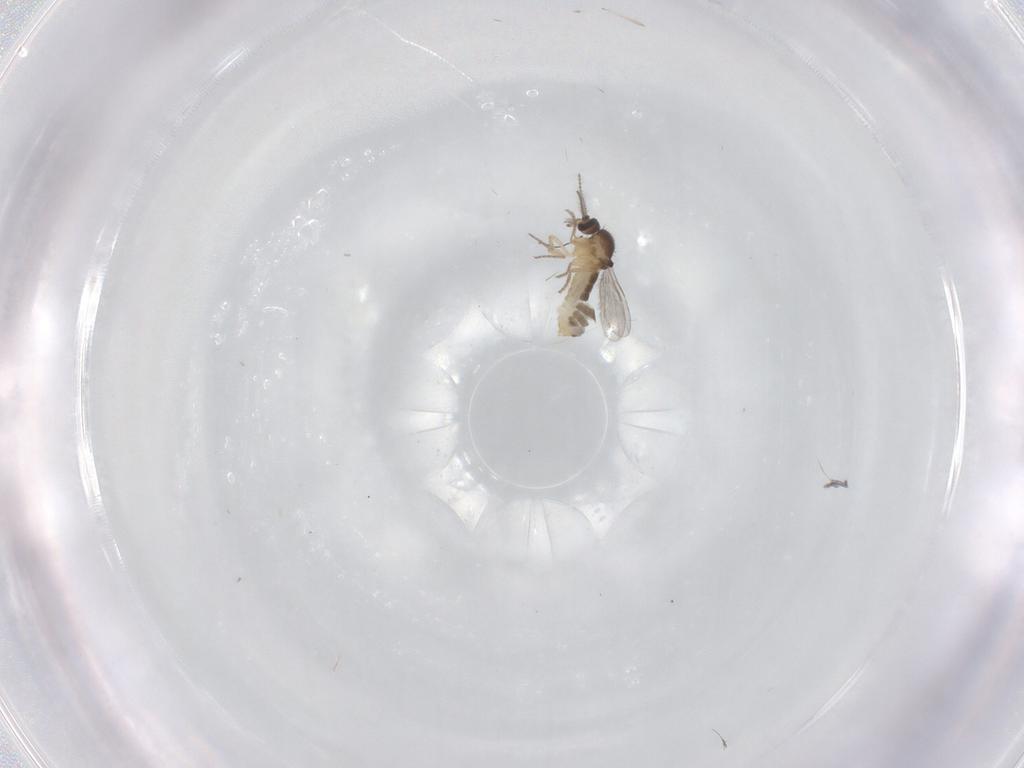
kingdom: Animalia
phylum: Arthropoda
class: Insecta
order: Diptera
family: Ceratopogonidae
